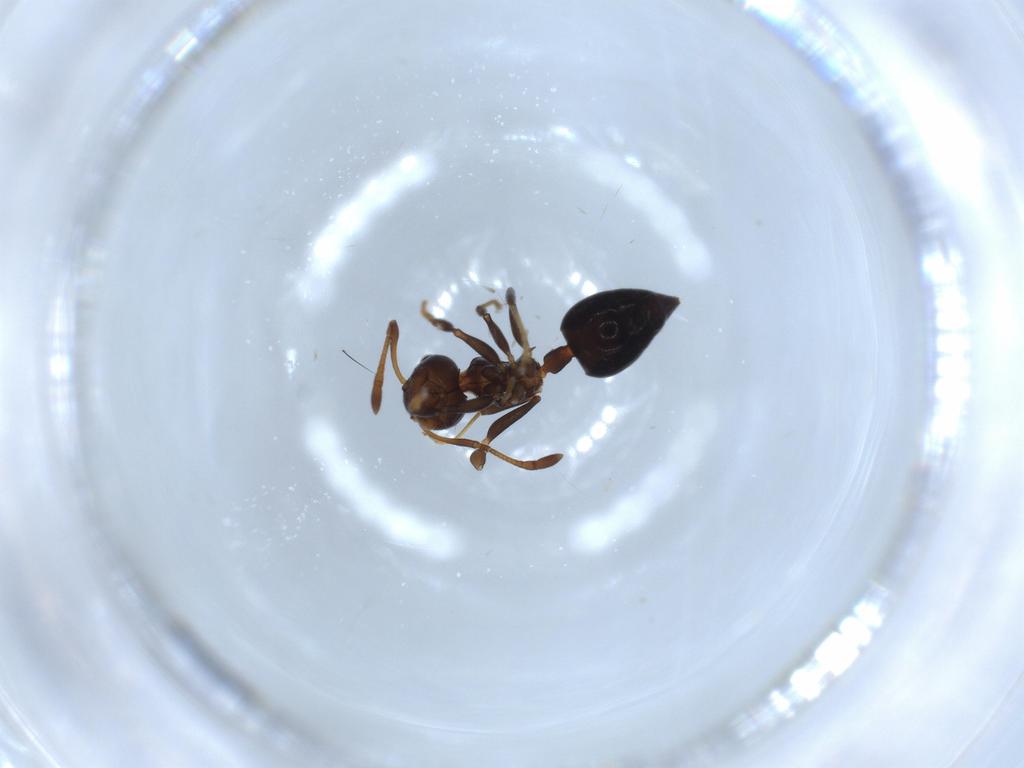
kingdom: Animalia
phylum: Arthropoda
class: Insecta
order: Hymenoptera
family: Formicidae
